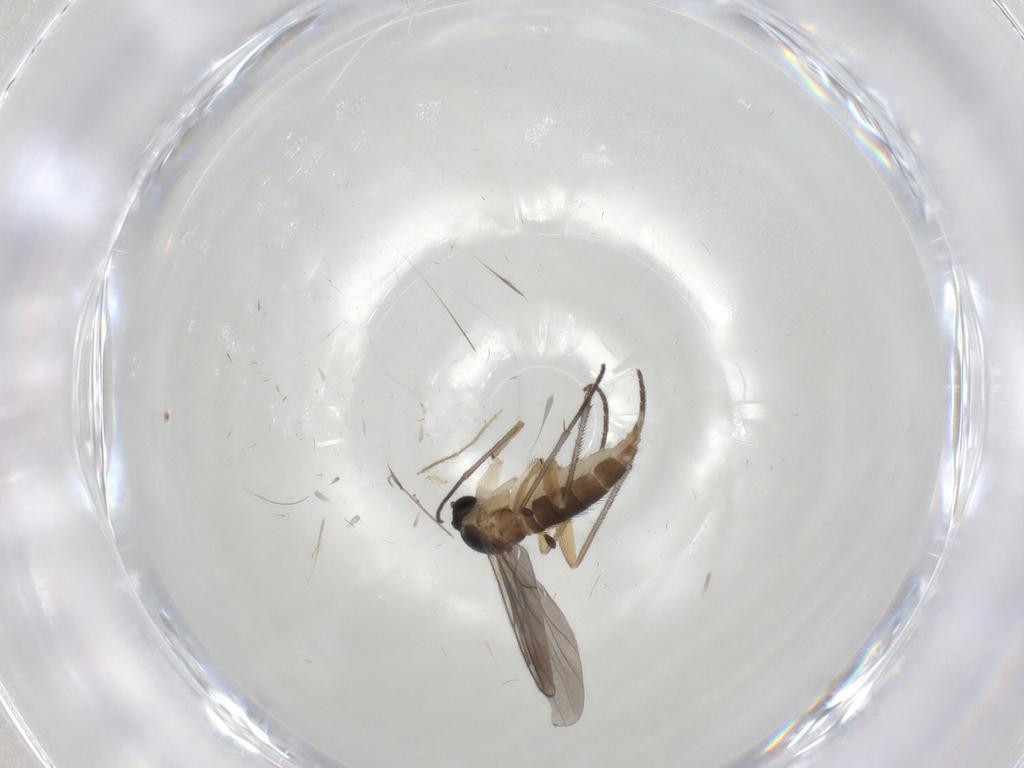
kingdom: Animalia
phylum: Arthropoda
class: Insecta
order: Diptera
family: Sciaridae
